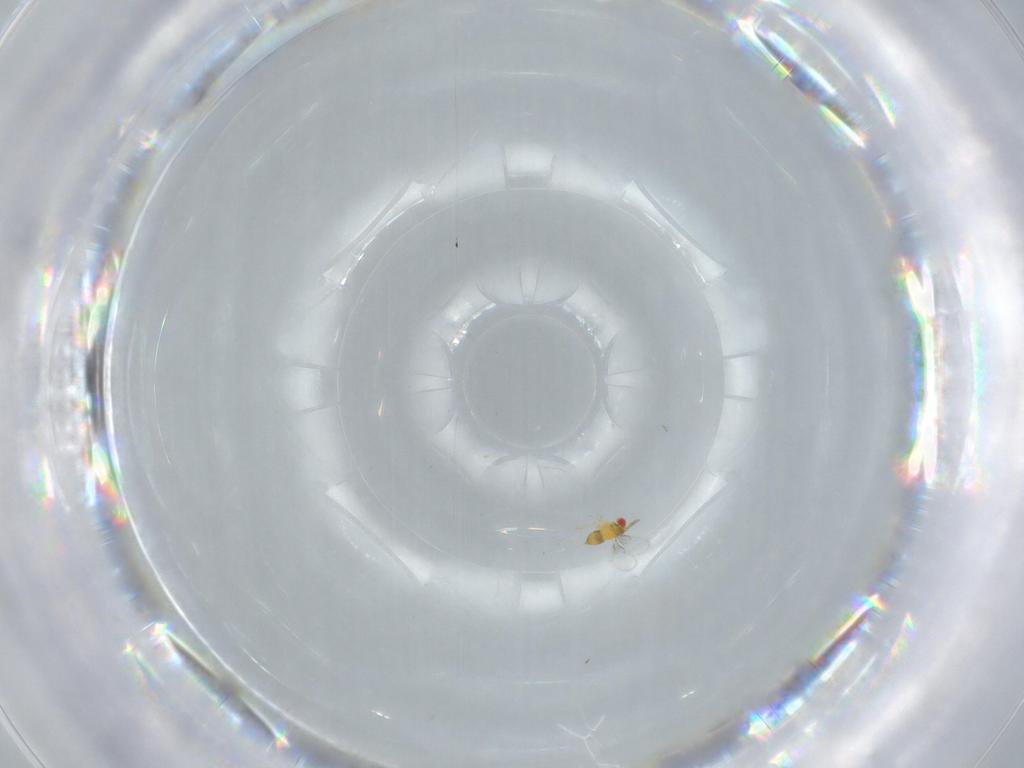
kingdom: Animalia
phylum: Arthropoda
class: Insecta
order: Hymenoptera
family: Trichogrammatidae
